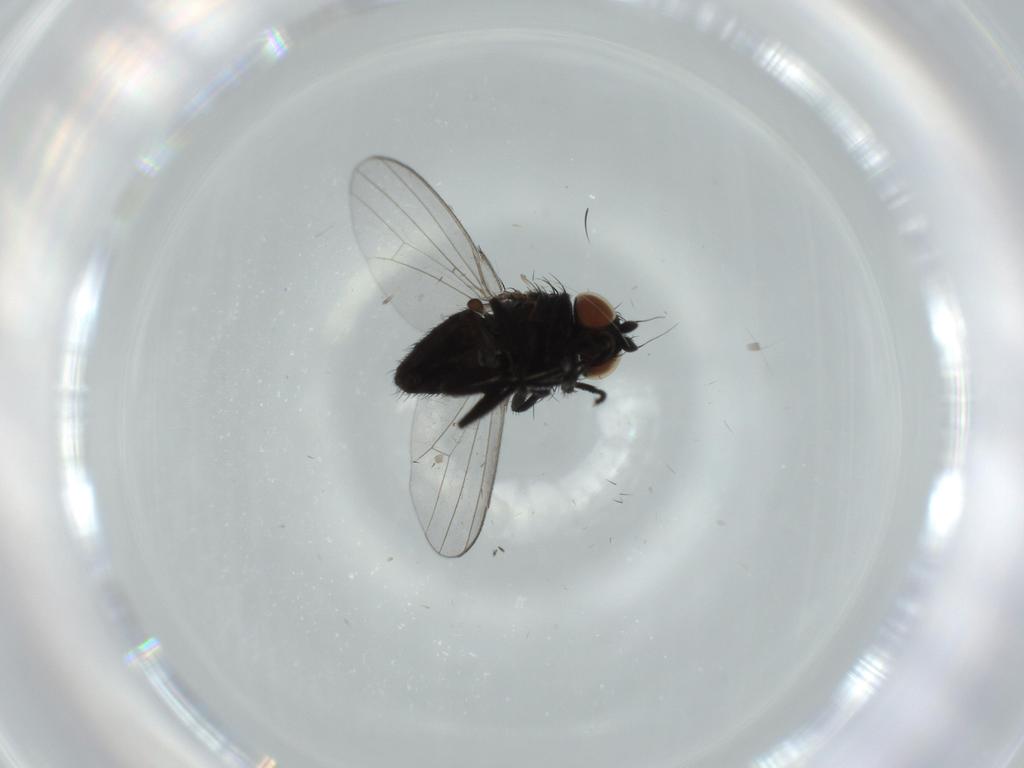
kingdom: Animalia
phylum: Arthropoda
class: Insecta
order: Diptera
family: Milichiidae
